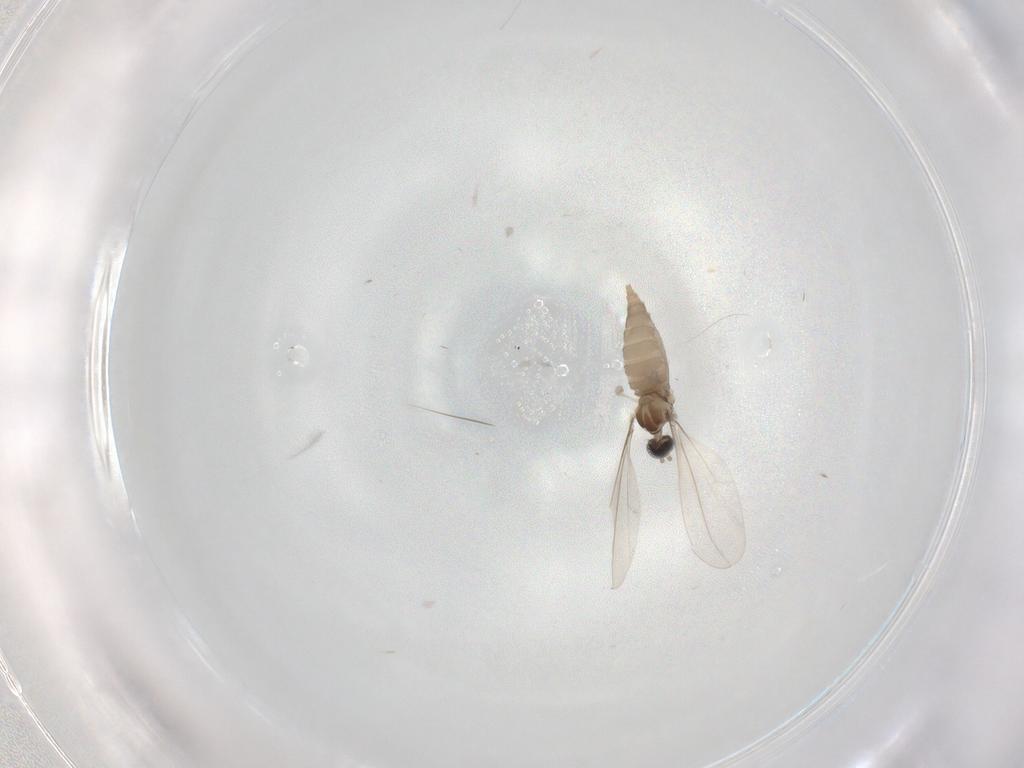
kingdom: Animalia
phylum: Arthropoda
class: Insecta
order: Diptera
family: Cecidomyiidae
